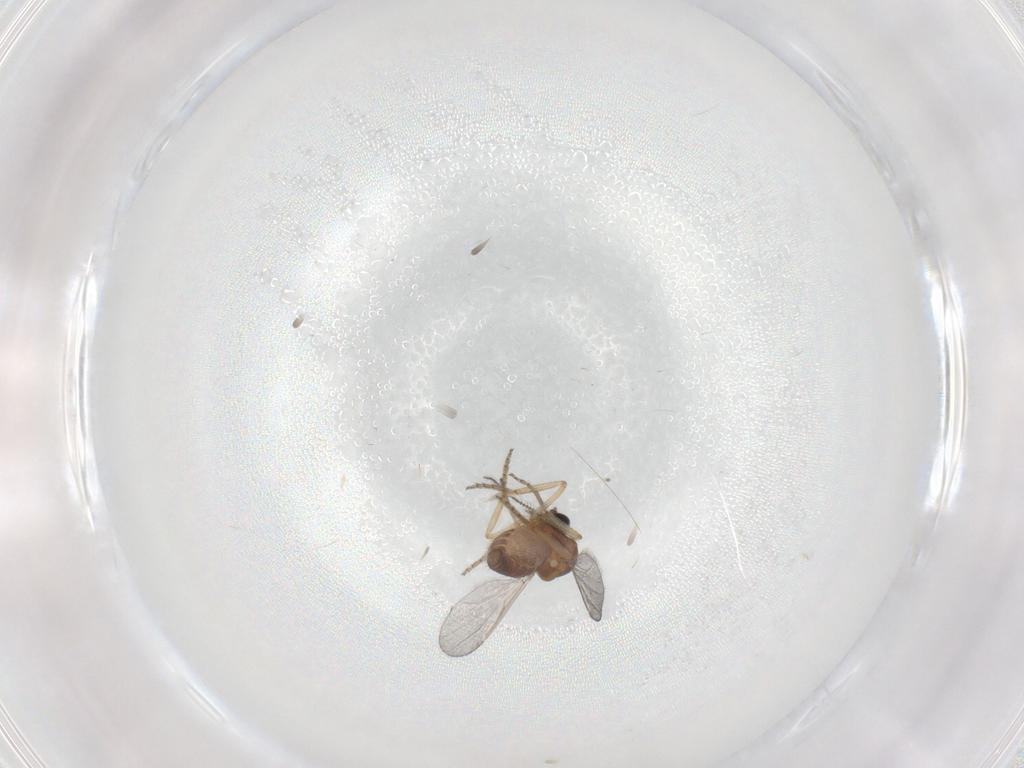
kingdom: Animalia
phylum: Arthropoda
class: Insecta
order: Diptera
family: Ceratopogonidae
